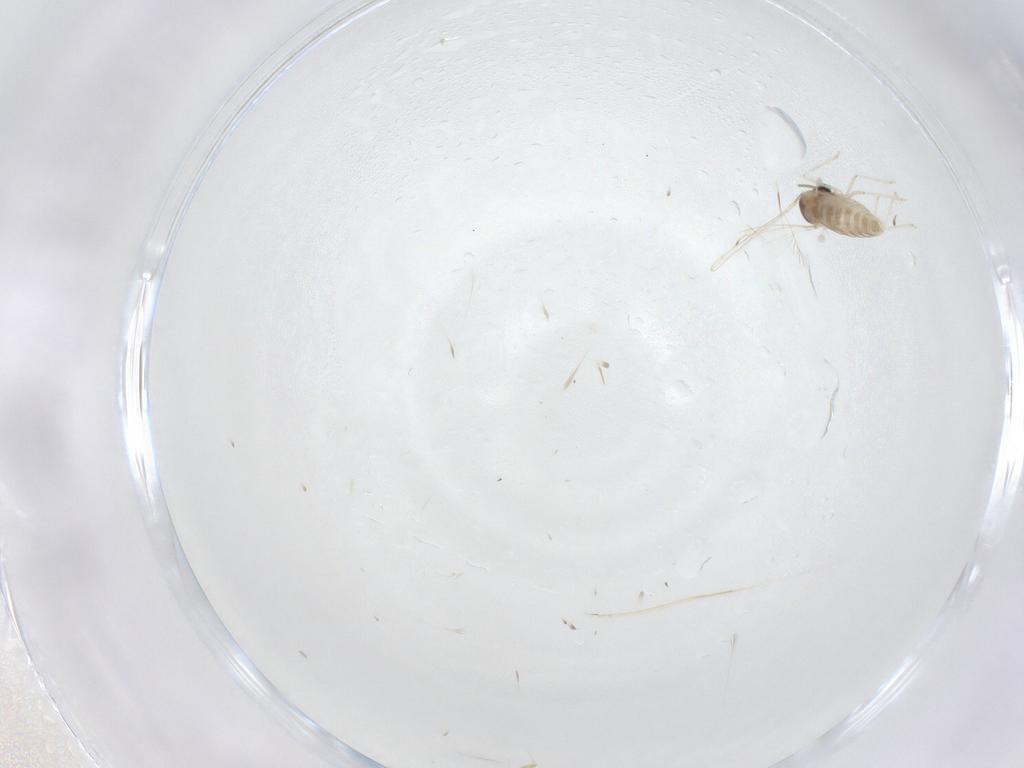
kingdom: Animalia
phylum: Arthropoda
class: Insecta
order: Diptera
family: Cecidomyiidae
